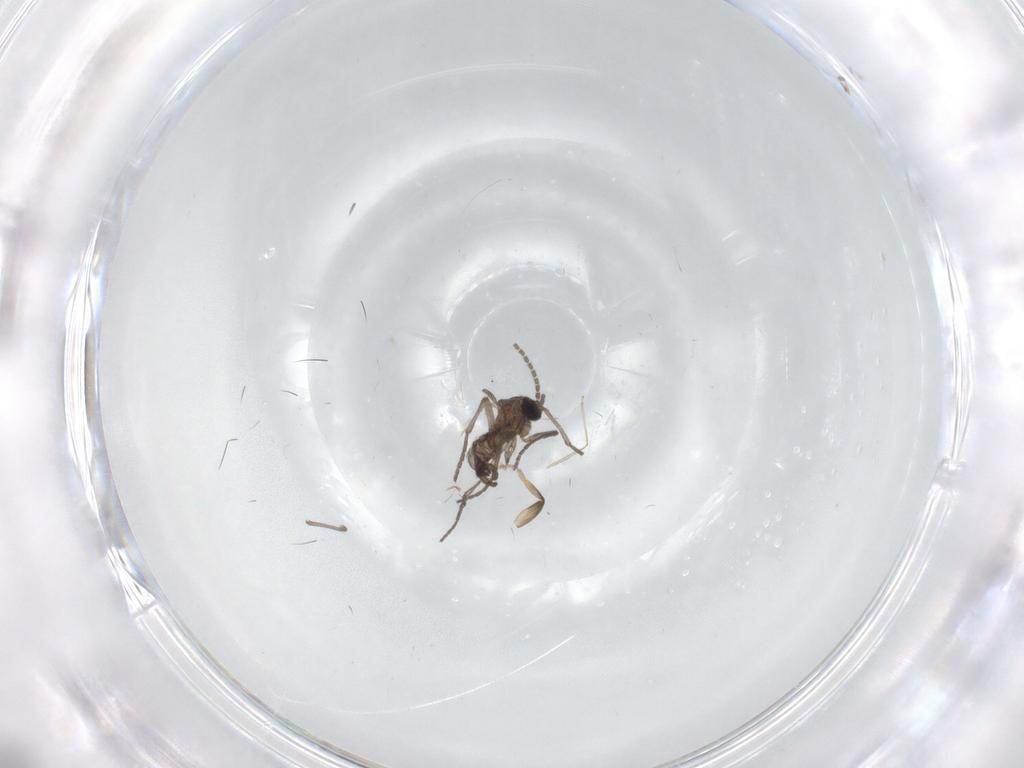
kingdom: Animalia
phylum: Arthropoda
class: Insecta
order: Diptera
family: Sciaridae
